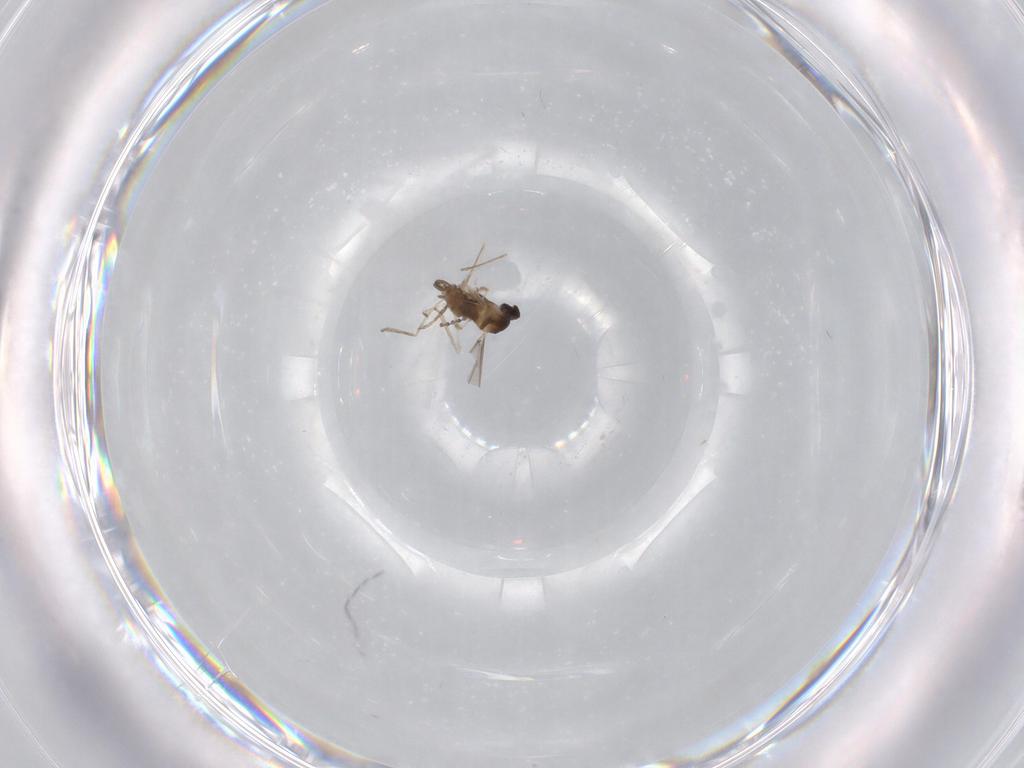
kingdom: Animalia
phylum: Arthropoda
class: Insecta
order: Diptera
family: Cecidomyiidae
